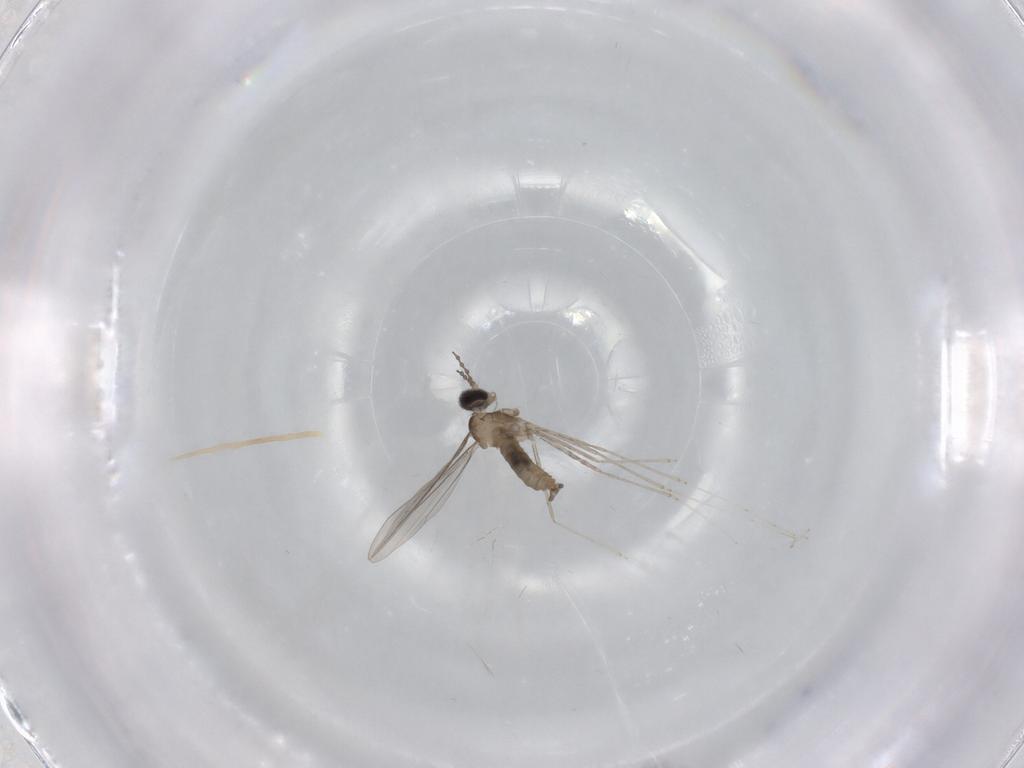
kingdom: Animalia
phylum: Arthropoda
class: Insecta
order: Diptera
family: Cecidomyiidae
